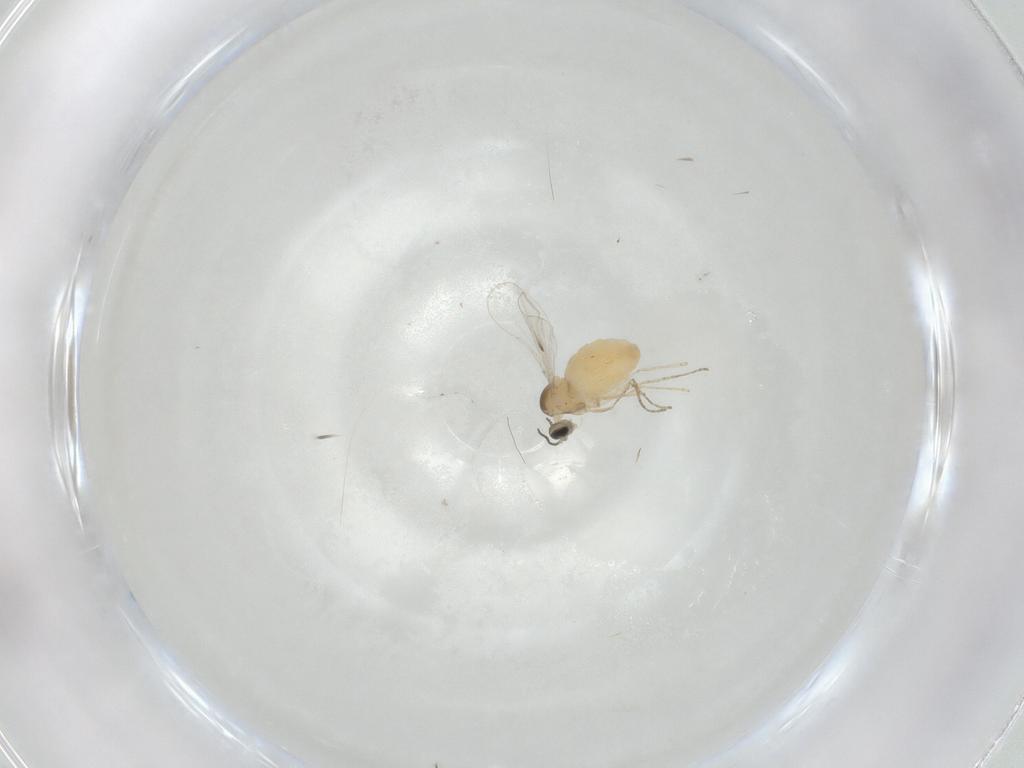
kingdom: Animalia
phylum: Arthropoda
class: Insecta
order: Diptera
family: Cecidomyiidae
